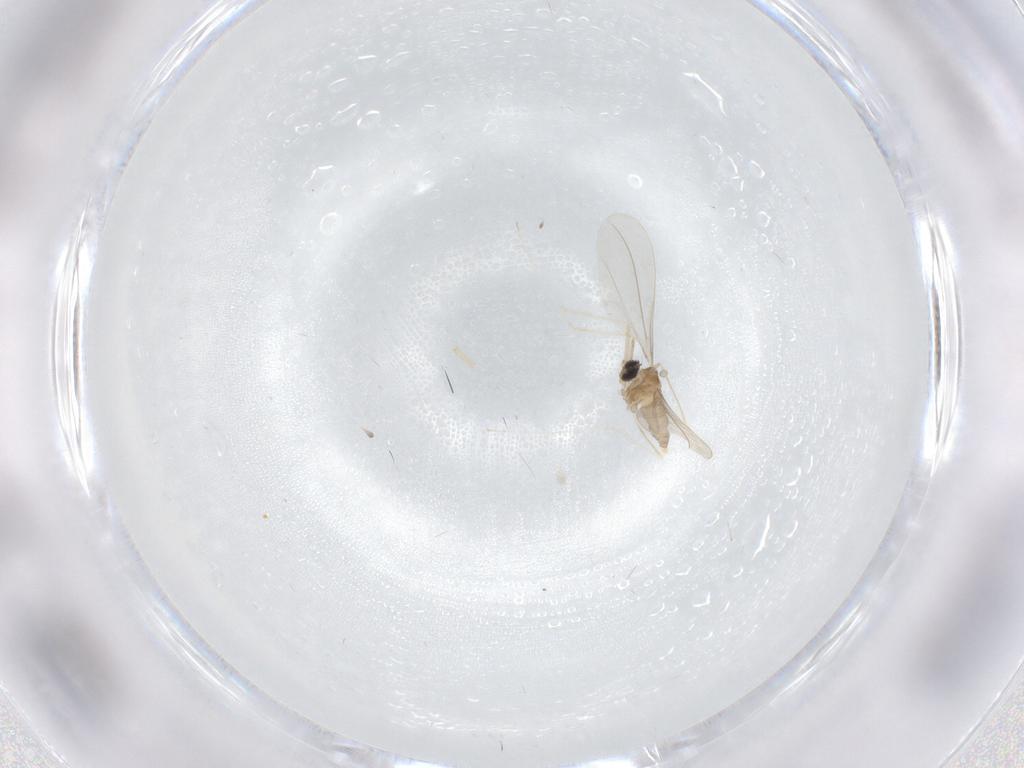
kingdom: Animalia
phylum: Arthropoda
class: Insecta
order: Diptera
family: Cecidomyiidae
